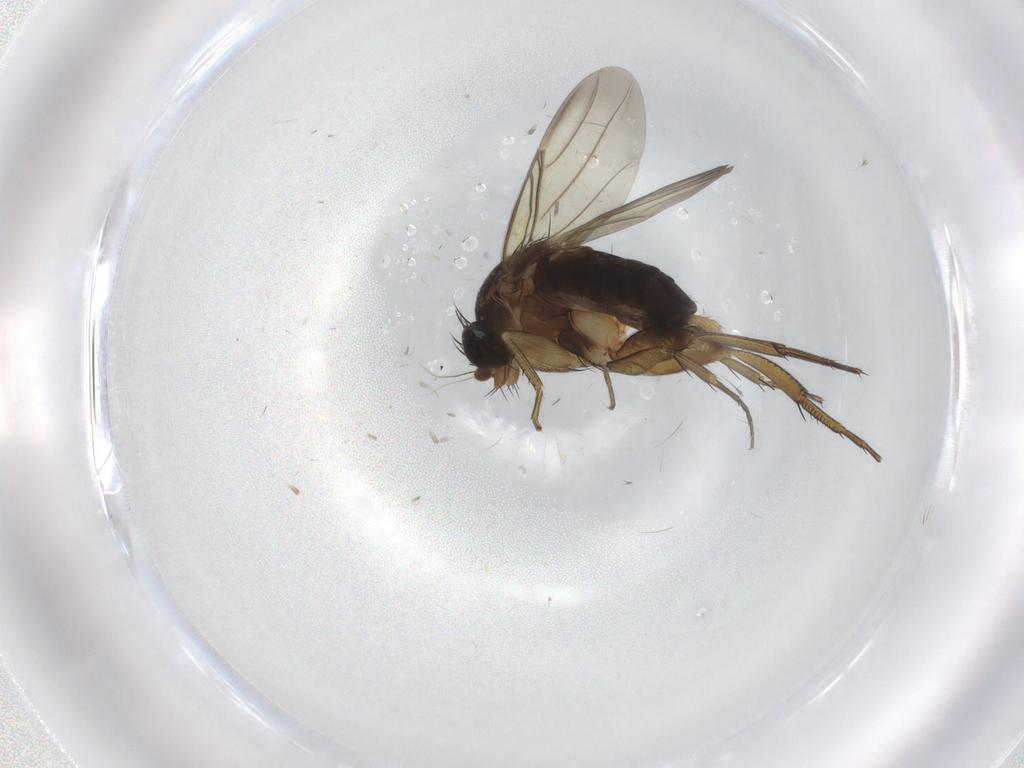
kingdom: Animalia
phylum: Arthropoda
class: Insecta
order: Diptera
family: Phoridae
